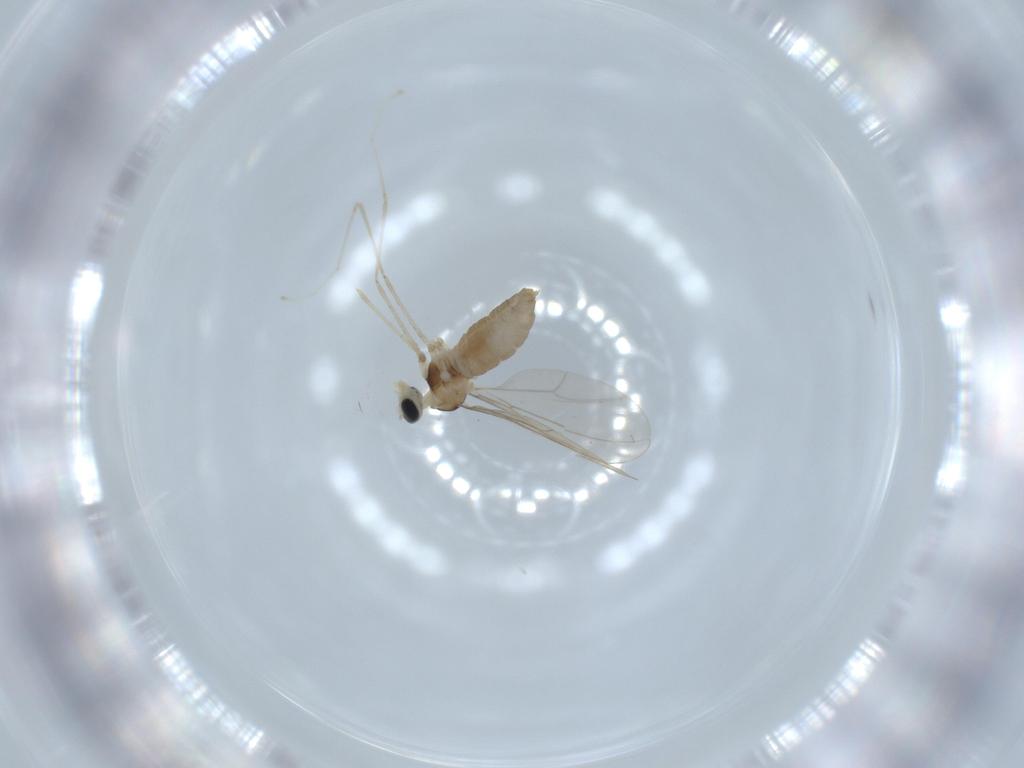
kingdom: Animalia
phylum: Arthropoda
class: Insecta
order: Diptera
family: Cecidomyiidae
